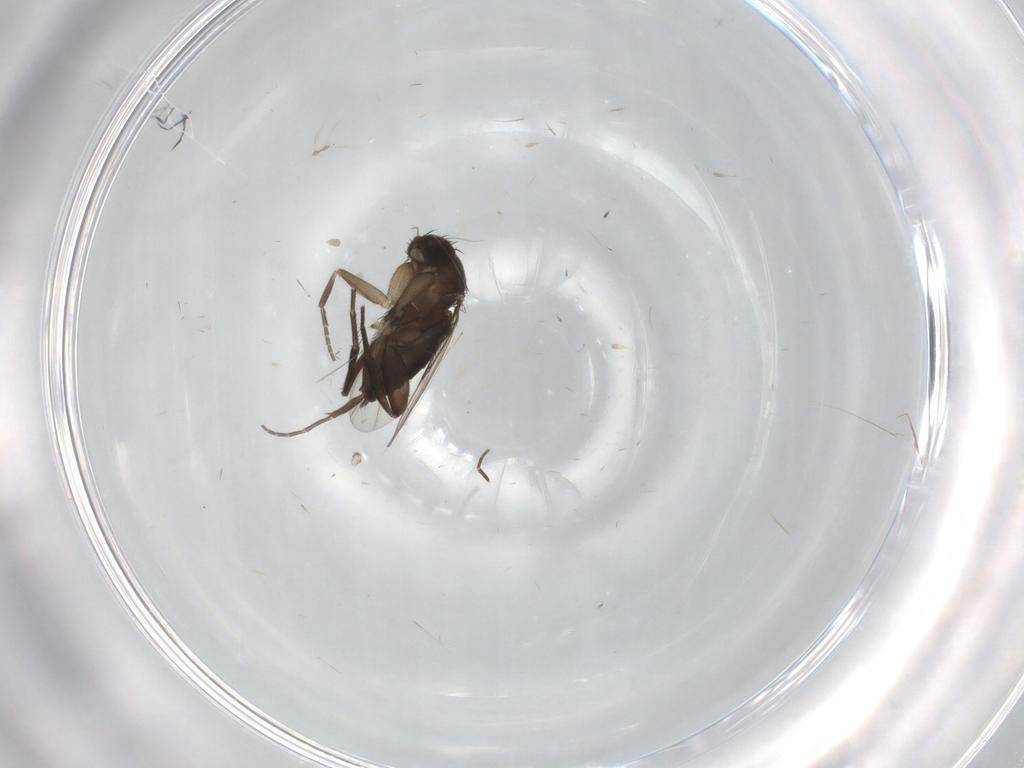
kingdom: Animalia
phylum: Arthropoda
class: Insecta
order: Diptera
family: Phoridae
